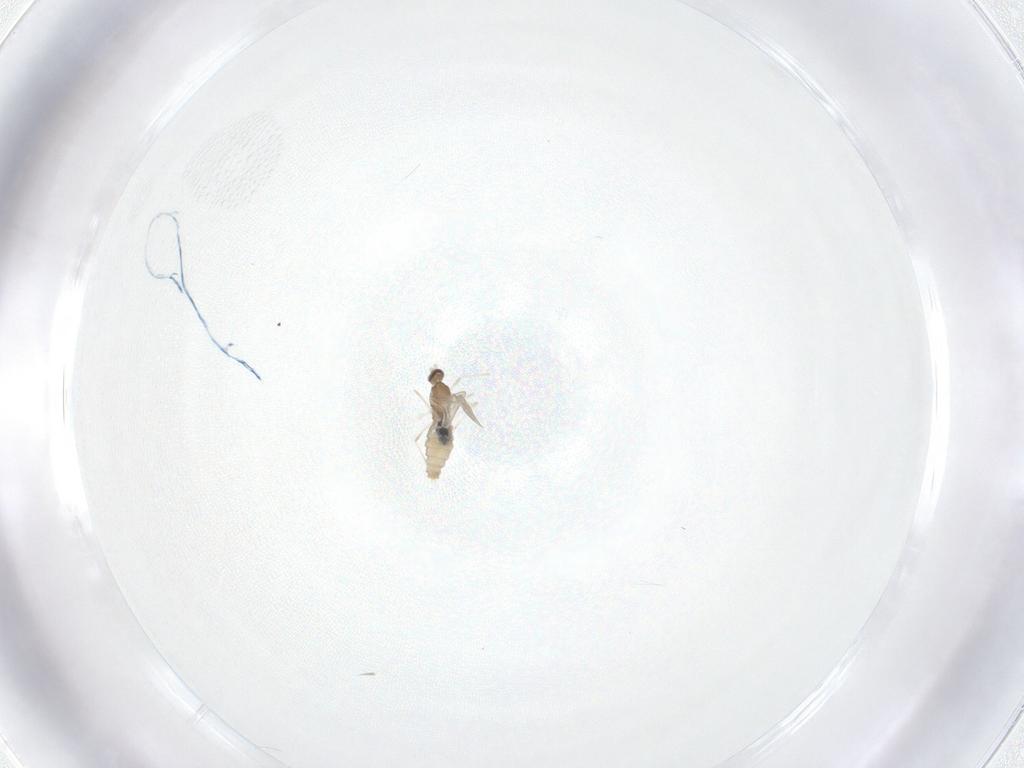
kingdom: Animalia
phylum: Arthropoda
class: Insecta
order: Diptera
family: Cecidomyiidae
